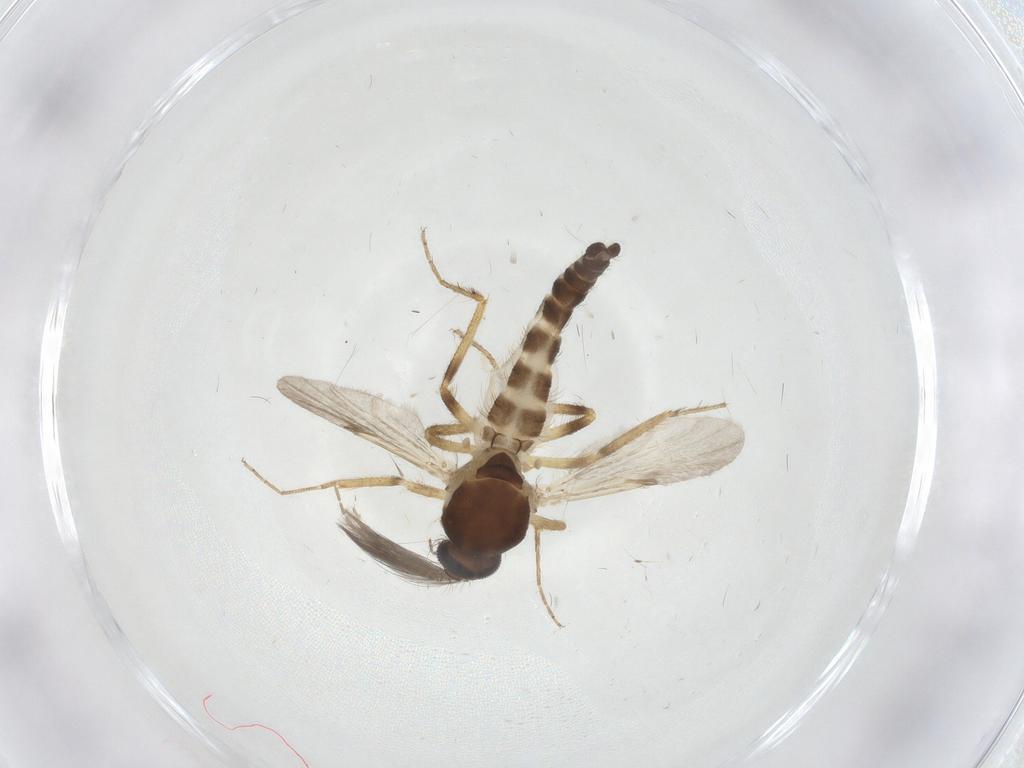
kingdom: Animalia
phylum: Arthropoda
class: Insecta
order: Diptera
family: Ceratopogonidae
